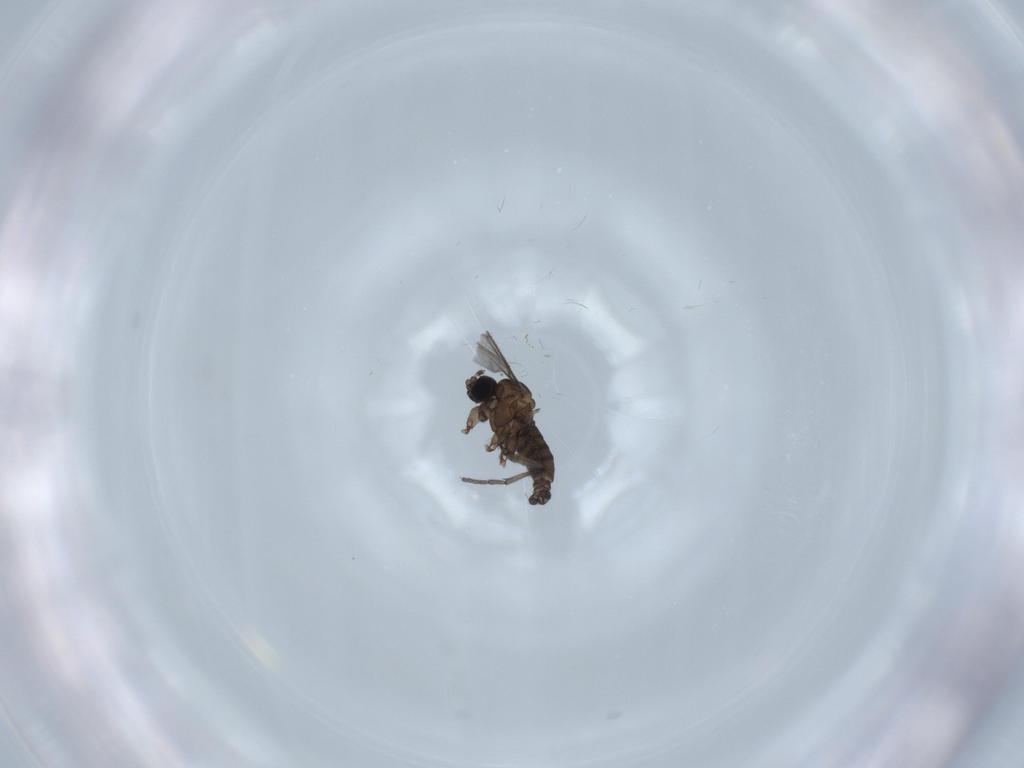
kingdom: Animalia
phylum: Arthropoda
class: Insecta
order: Diptera
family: Sciaridae
